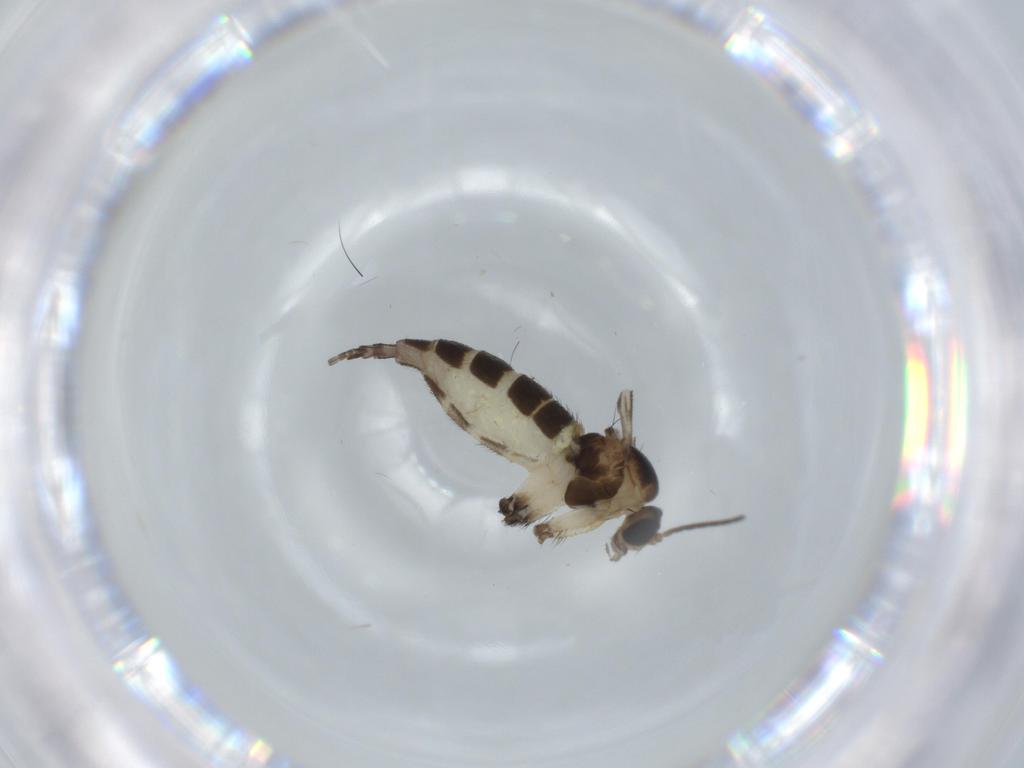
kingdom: Animalia
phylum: Arthropoda
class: Insecta
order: Diptera
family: Sciaridae
